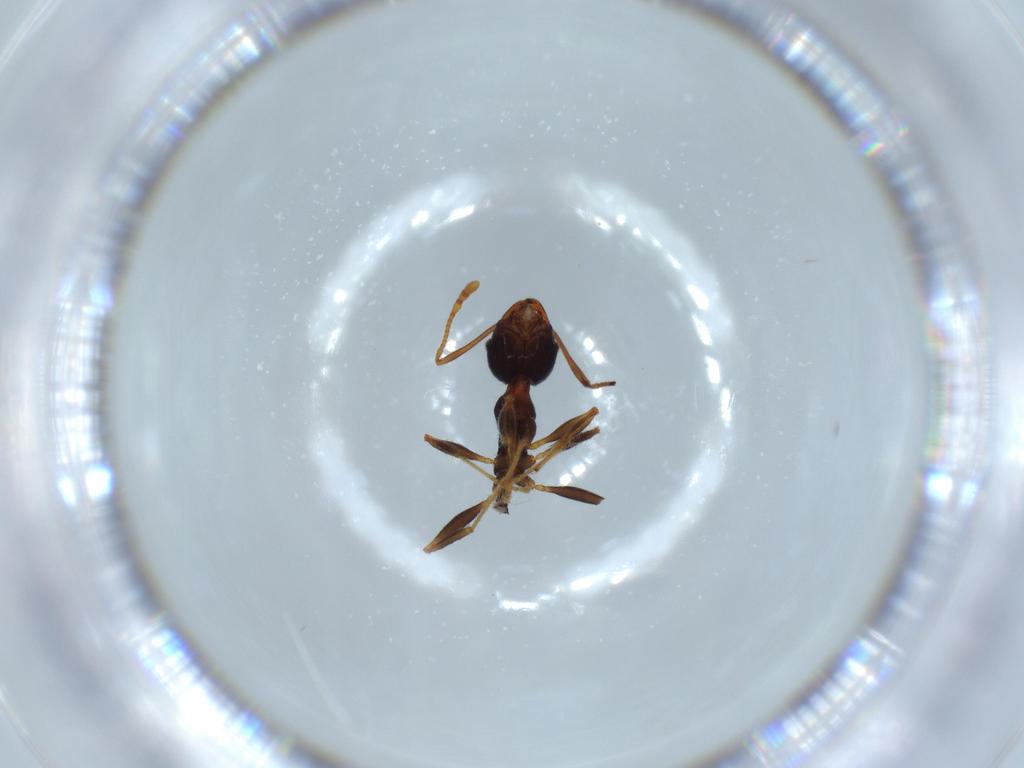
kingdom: Animalia
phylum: Arthropoda
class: Insecta
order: Hymenoptera
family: Formicidae
